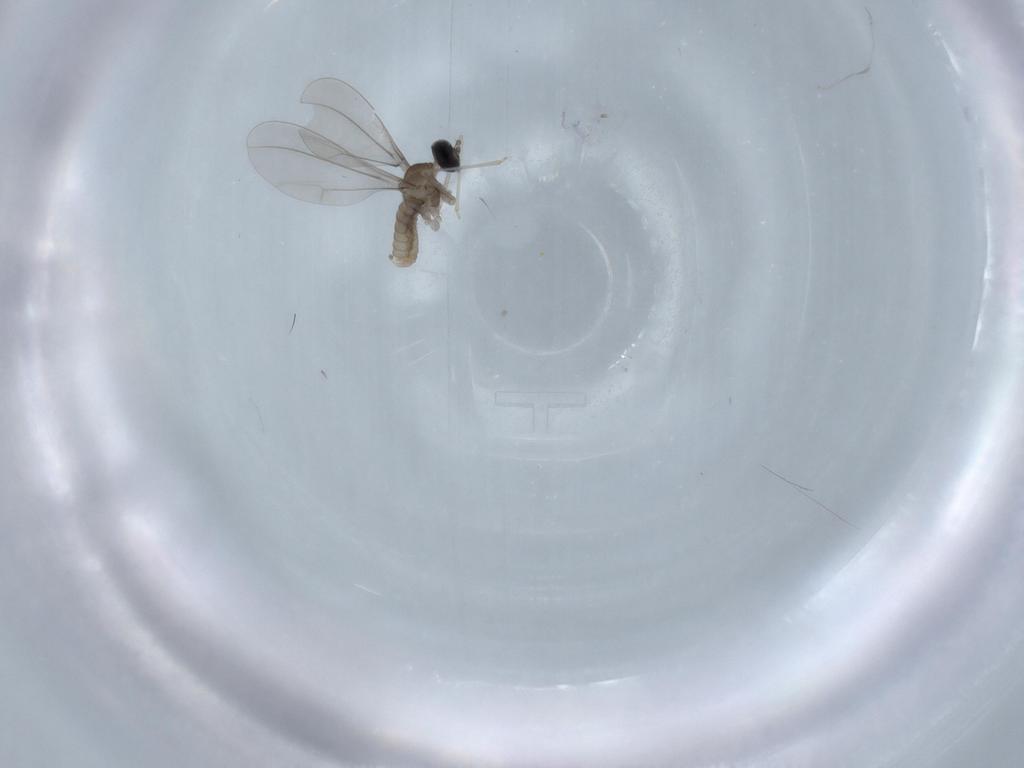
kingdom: Animalia
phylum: Arthropoda
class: Insecta
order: Diptera
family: Cecidomyiidae
